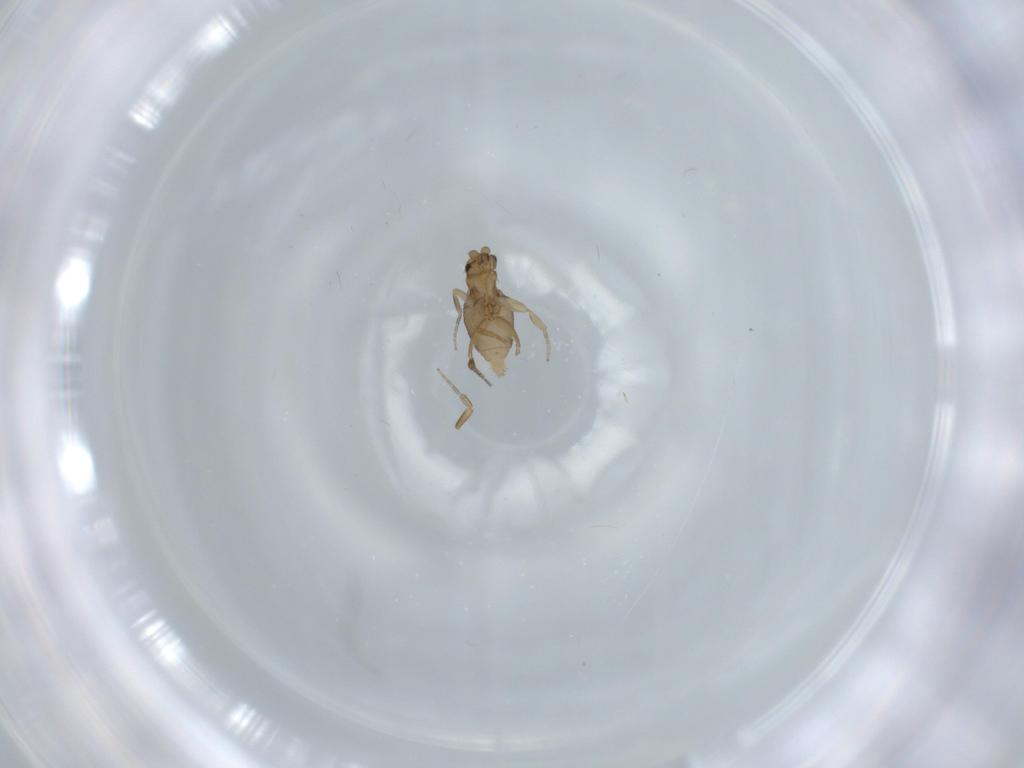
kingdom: Animalia
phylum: Arthropoda
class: Insecta
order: Diptera
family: Phoridae
